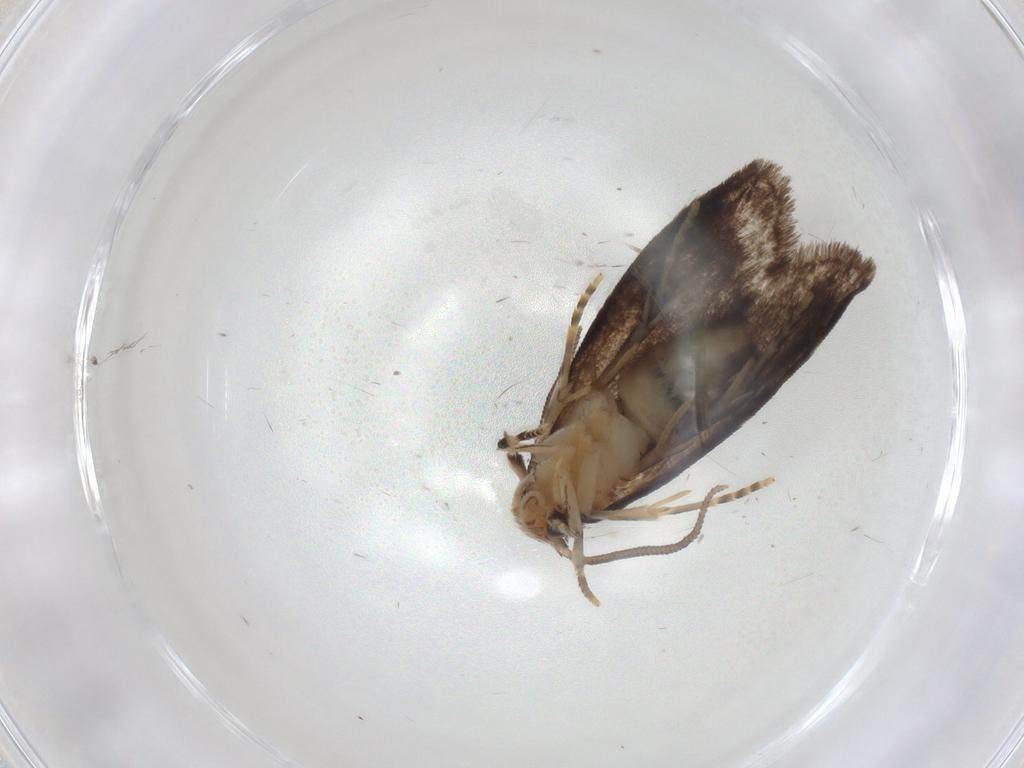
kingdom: Animalia
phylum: Arthropoda
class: Insecta
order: Lepidoptera
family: Dryadaulidae
